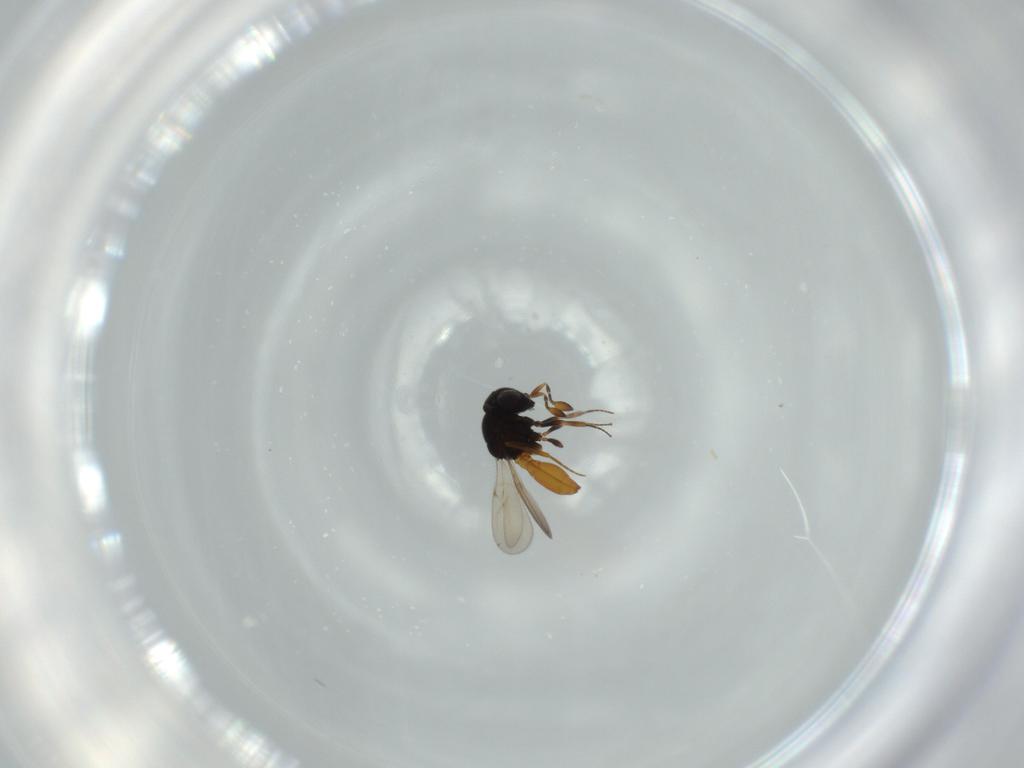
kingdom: Animalia
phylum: Arthropoda
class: Insecta
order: Hymenoptera
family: Scelionidae
